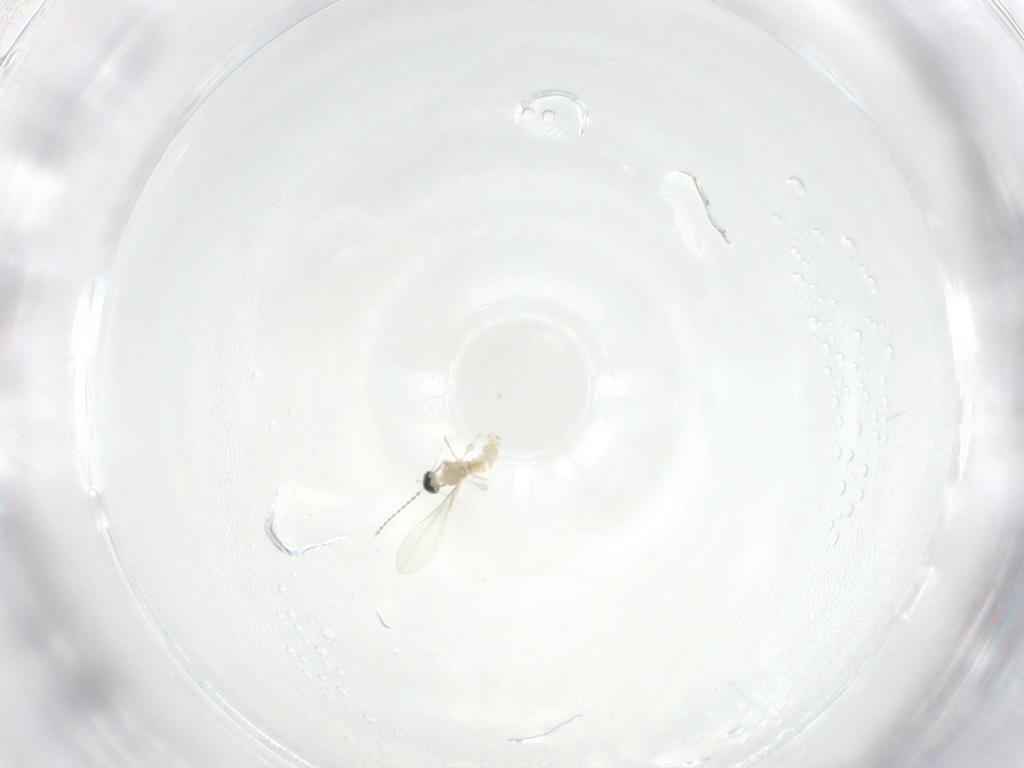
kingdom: Animalia
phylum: Arthropoda
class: Insecta
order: Diptera
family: Cecidomyiidae
